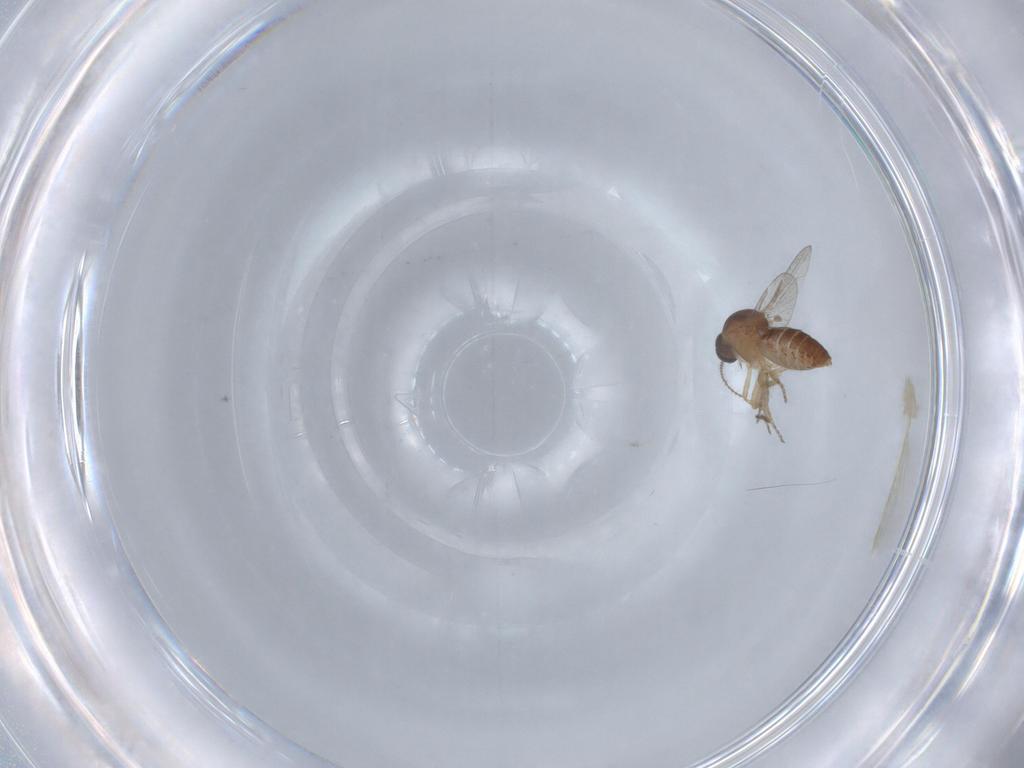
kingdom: Animalia
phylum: Arthropoda
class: Insecta
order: Diptera
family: Ceratopogonidae
